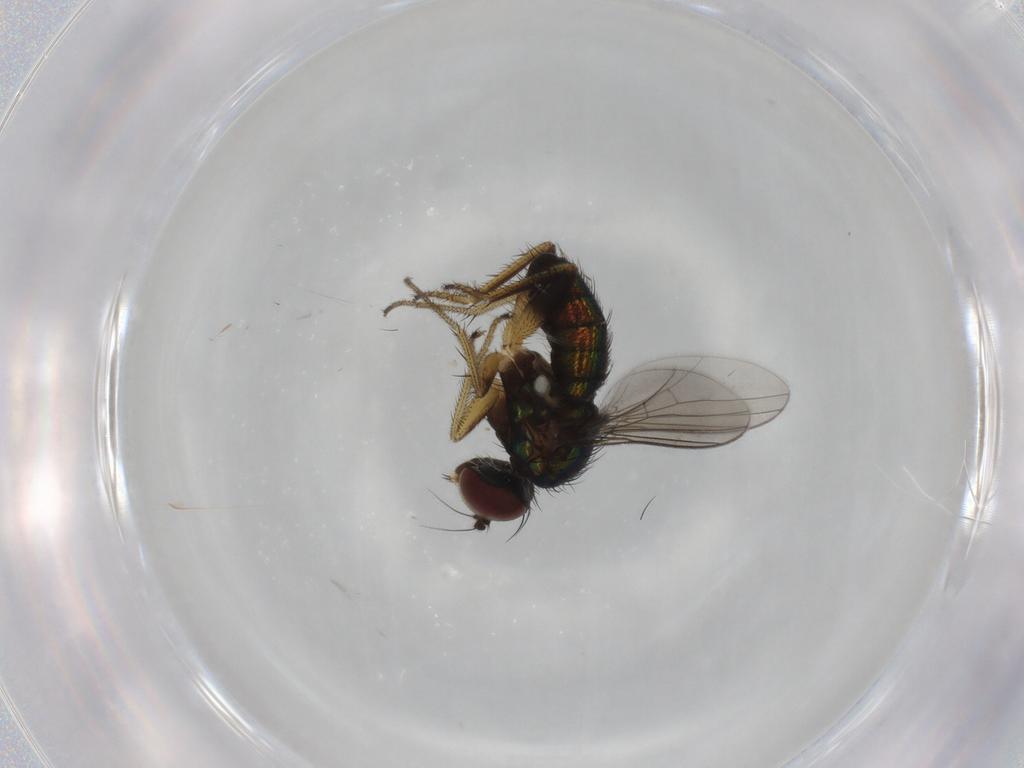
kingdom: Animalia
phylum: Arthropoda
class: Insecta
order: Diptera
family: Dolichopodidae
